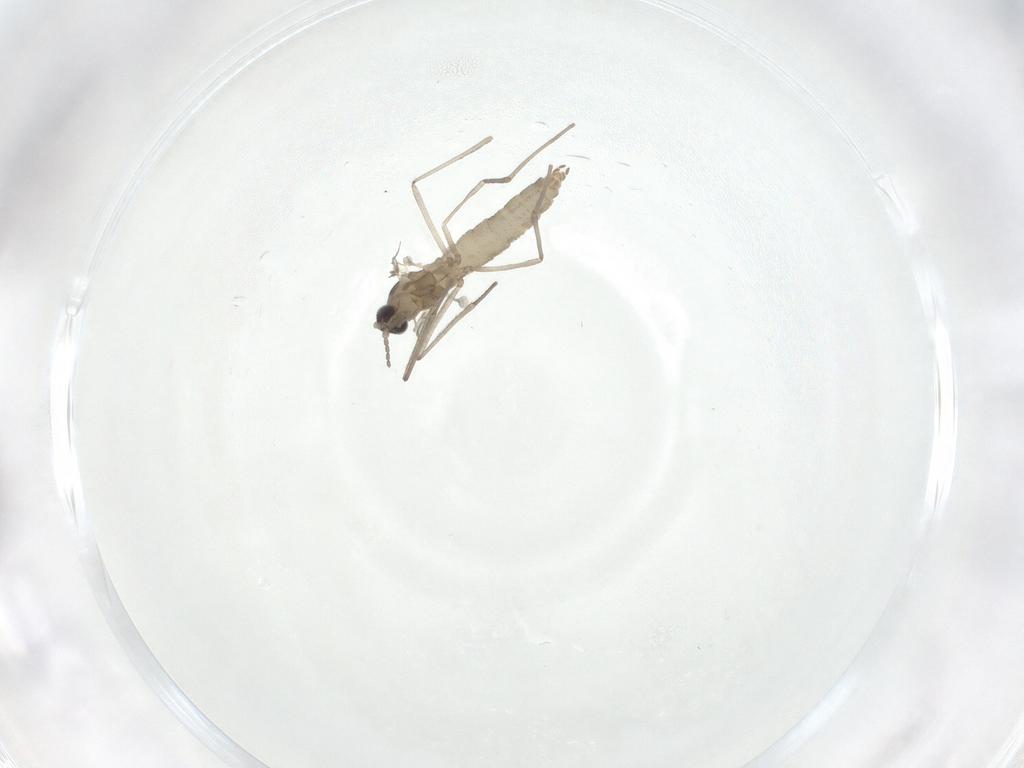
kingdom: Animalia
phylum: Arthropoda
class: Insecta
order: Diptera
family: Cecidomyiidae
